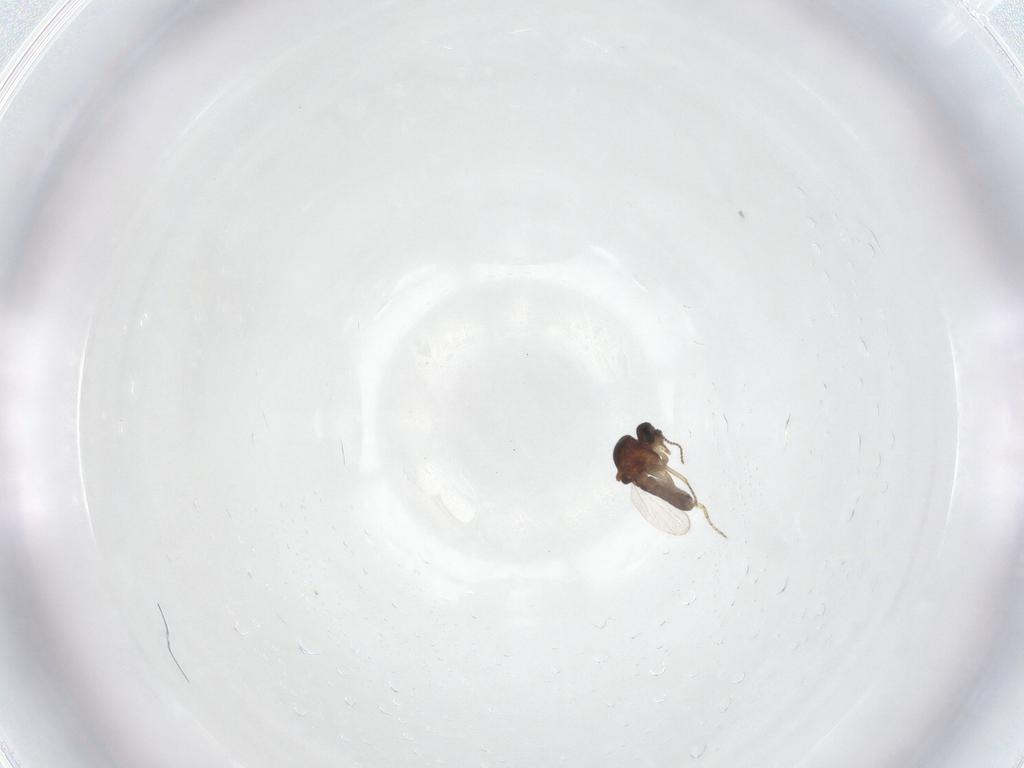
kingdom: Animalia
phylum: Arthropoda
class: Insecta
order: Diptera
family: Ceratopogonidae
